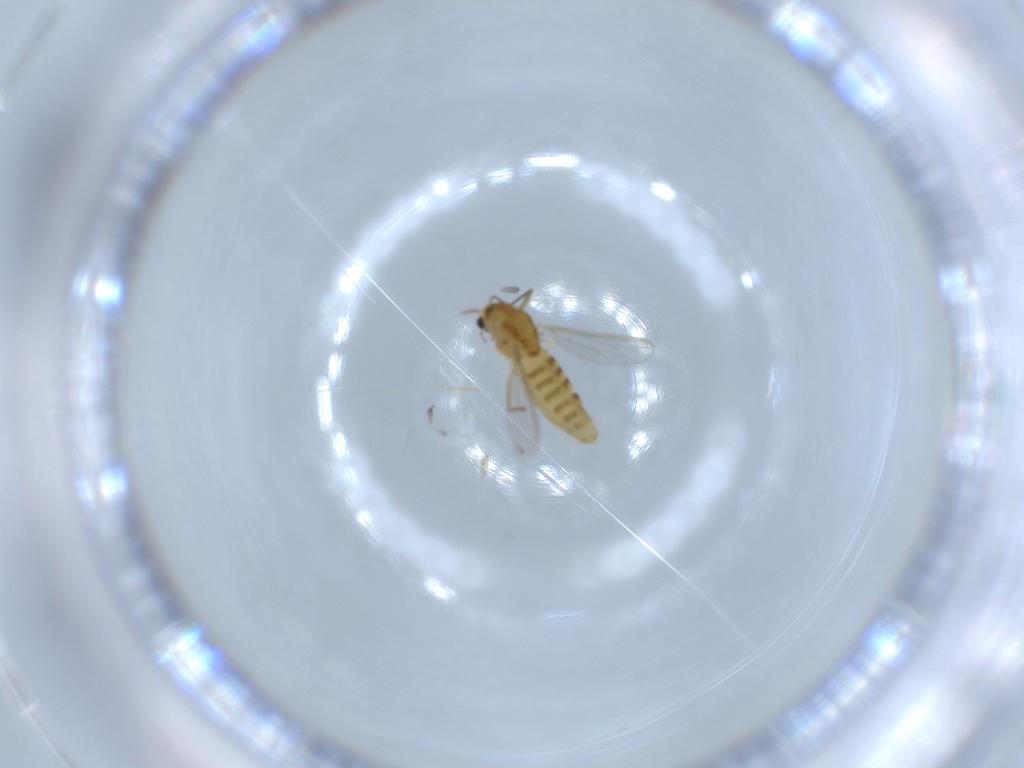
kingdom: Animalia
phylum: Arthropoda
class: Insecta
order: Diptera
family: Chironomidae
